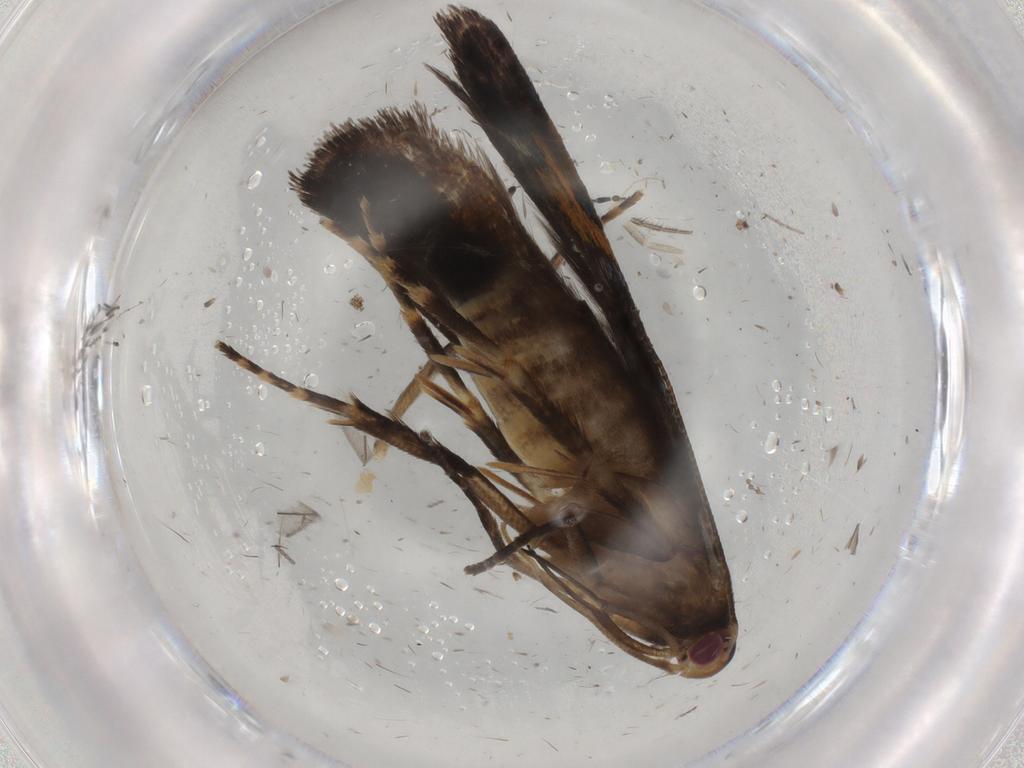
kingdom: Animalia
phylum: Arthropoda
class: Insecta
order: Lepidoptera
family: Gelechiidae
